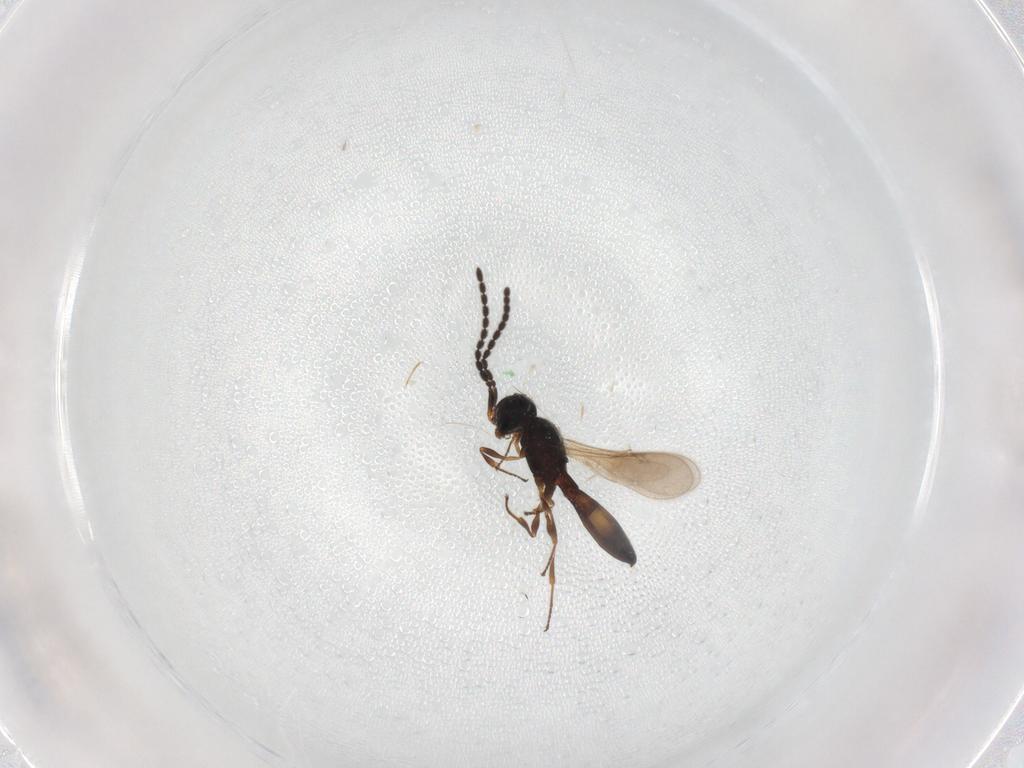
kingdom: Animalia
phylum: Arthropoda
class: Insecta
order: Hymenoptera
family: Scelionidae
